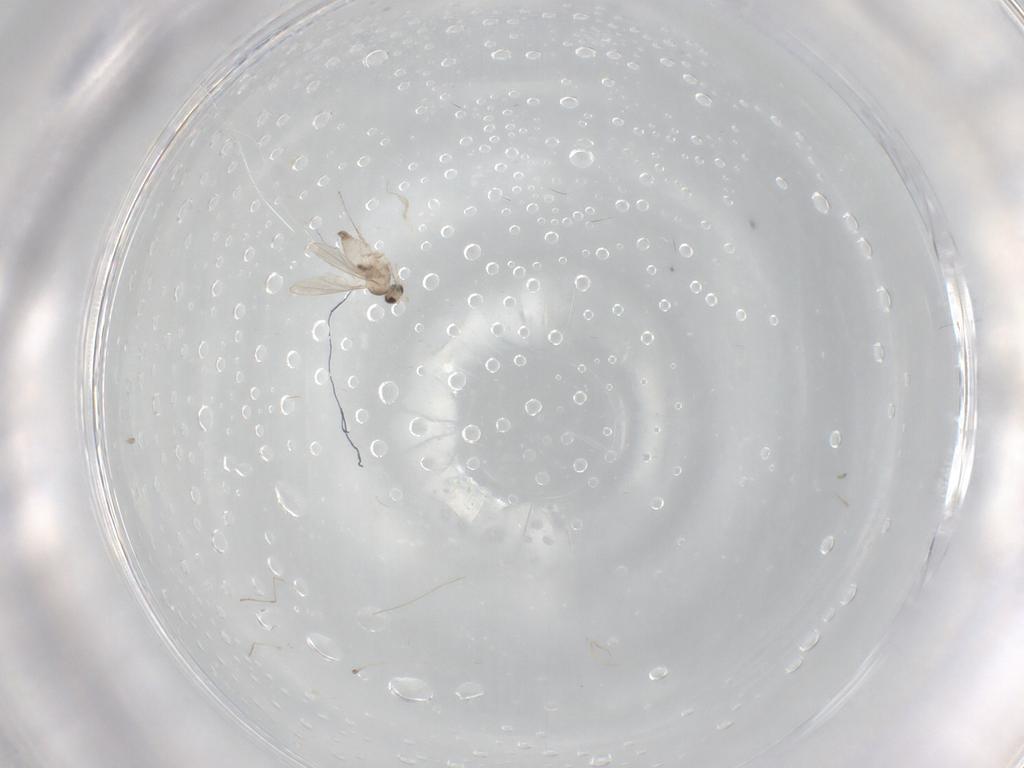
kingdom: Animalia
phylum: Arthropoda
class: Insecta
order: Diptera
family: Cecidomyiidae
